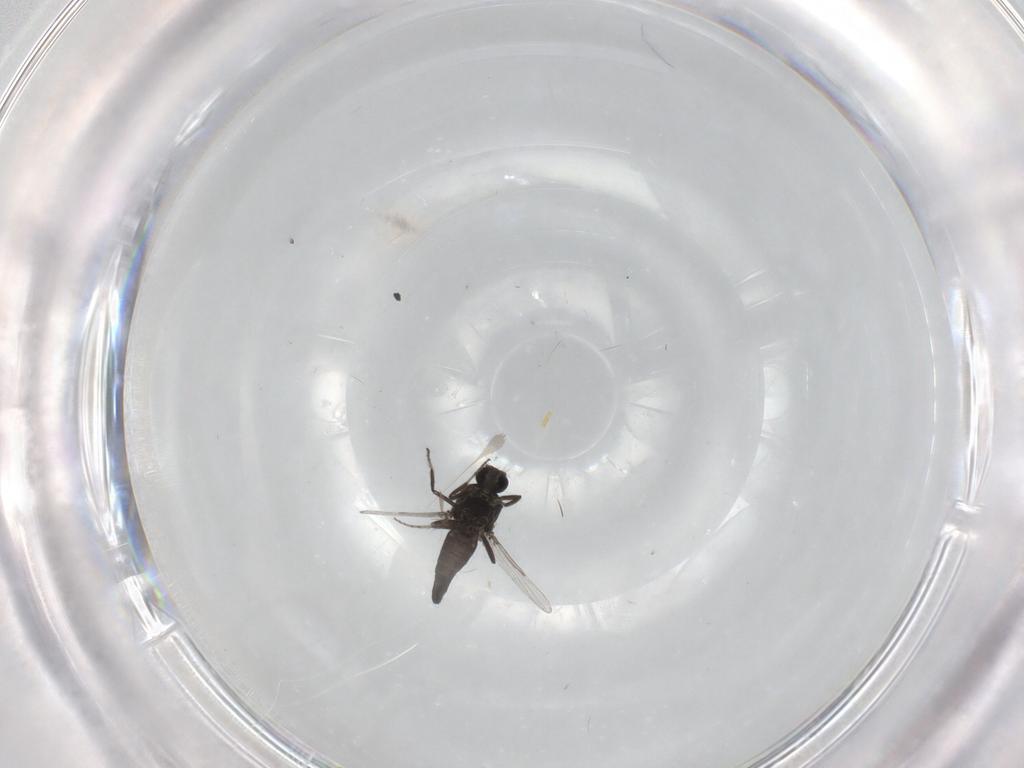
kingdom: Animalia
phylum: Arthropoda
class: Insecta
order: Diptera
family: Ceratopogonidae
